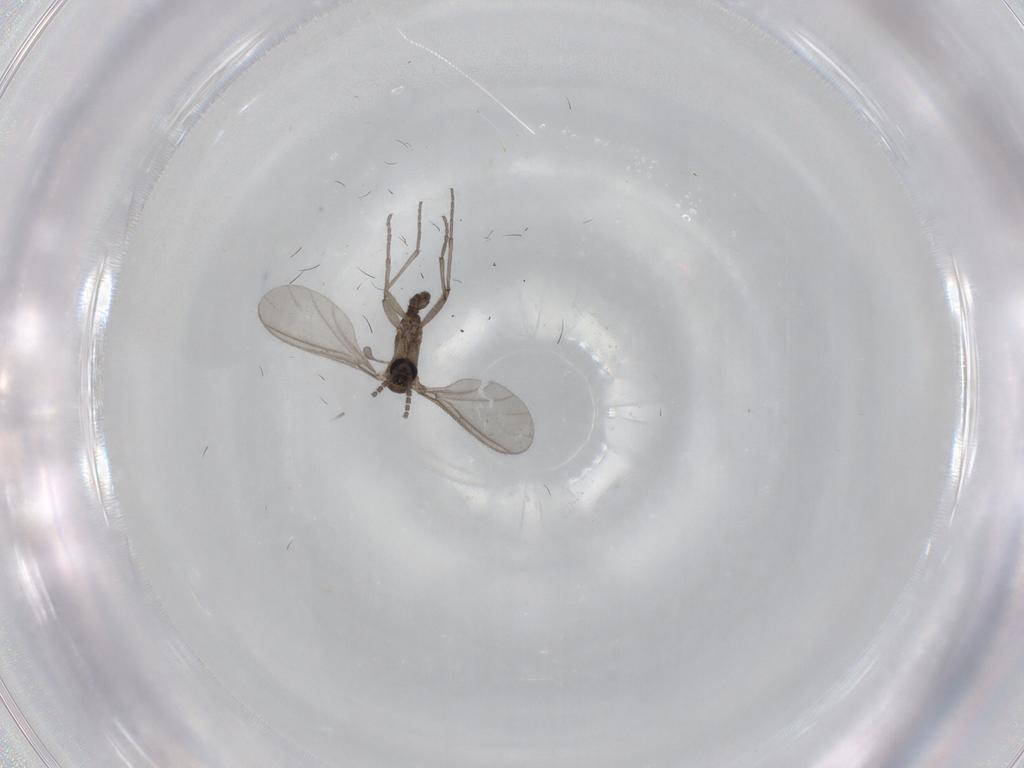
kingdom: Animalia
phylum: Arthropoda
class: Insecta
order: Diptera
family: Sciaridae
